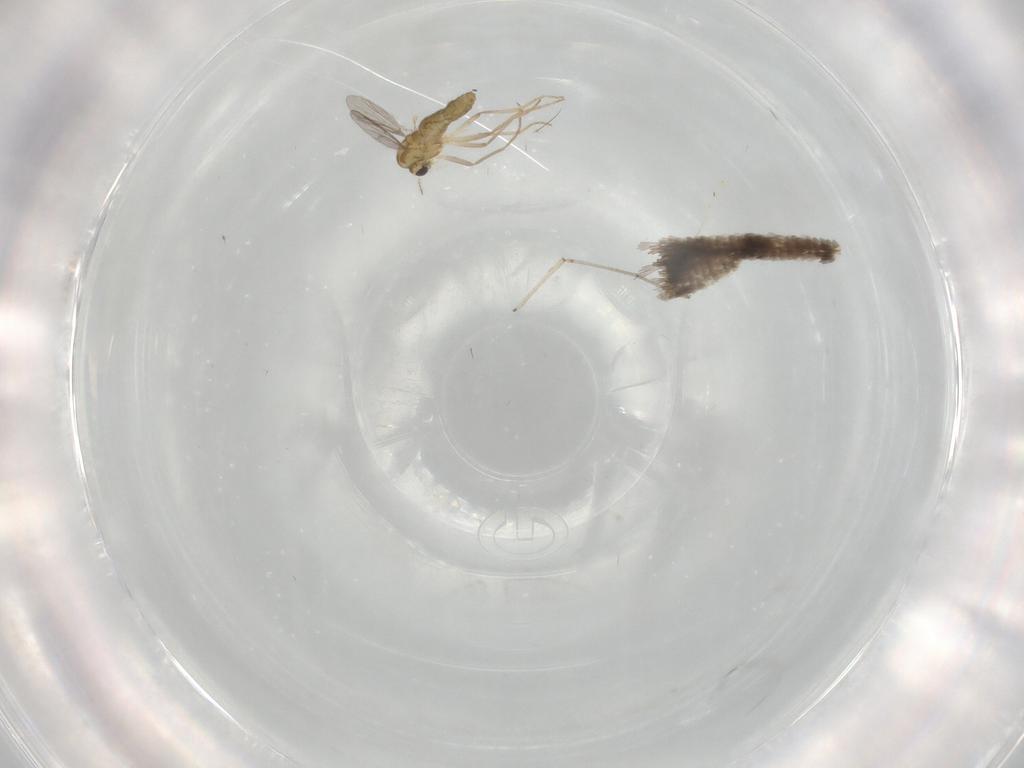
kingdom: Animalia
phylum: Arthropoda
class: Insecta
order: Diptera
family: Chironomidae
